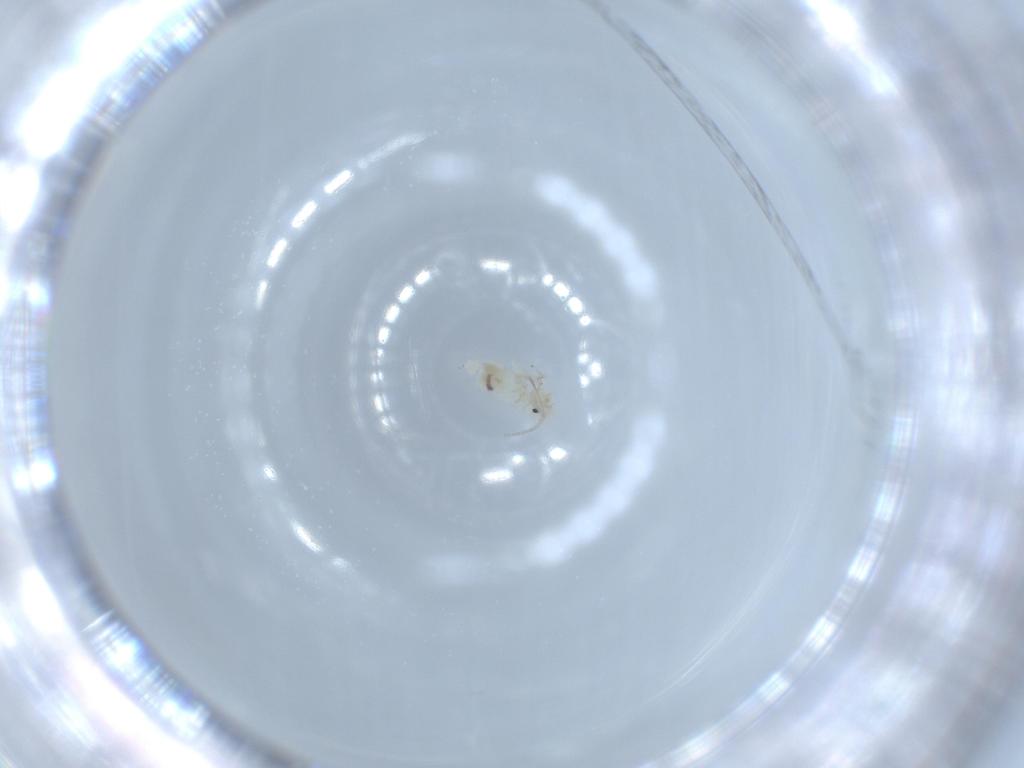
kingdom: Animalia
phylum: Arthropoda
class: Insecta
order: Psocodea
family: Caeciliusidae
